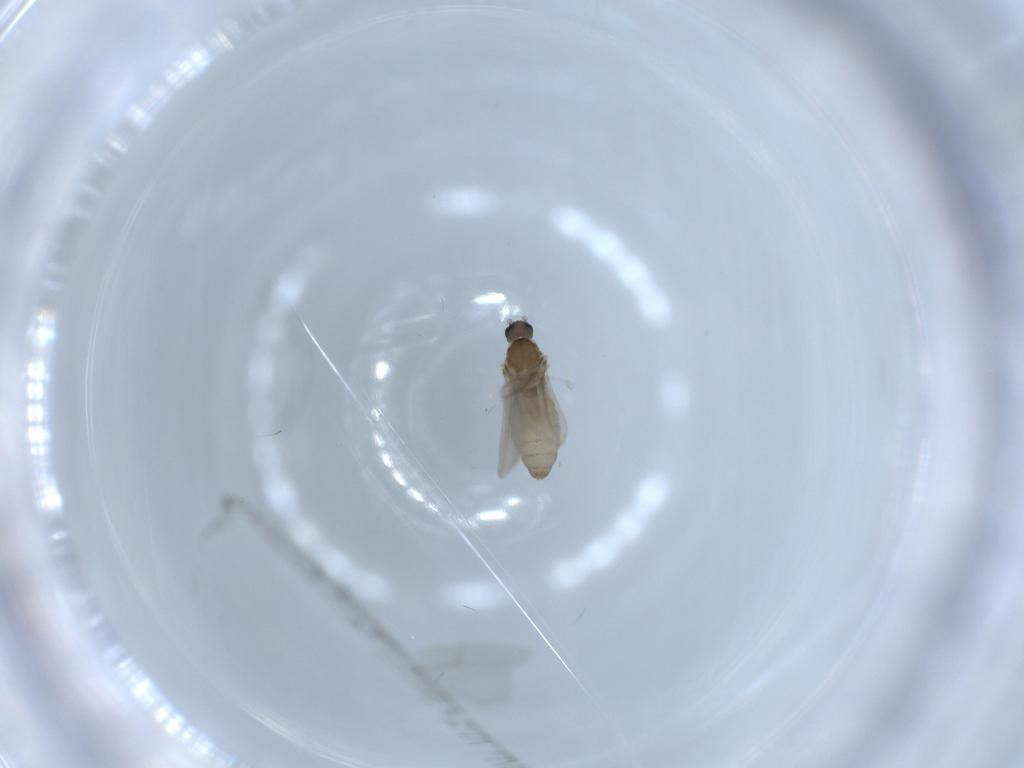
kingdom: Animalia
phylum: Arthropoda
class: Insecta
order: Diptera
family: Cecidomyiidae
